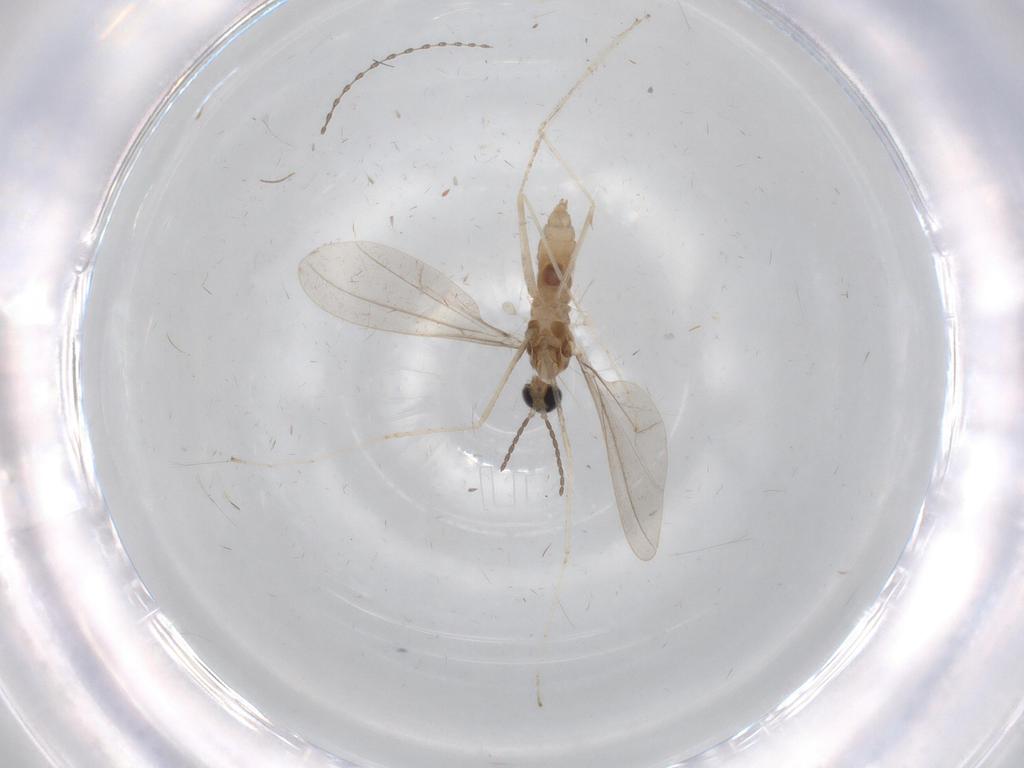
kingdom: Animalia
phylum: Arthropoda
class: Insecta
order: Diptera
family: Cecidomyiidae
